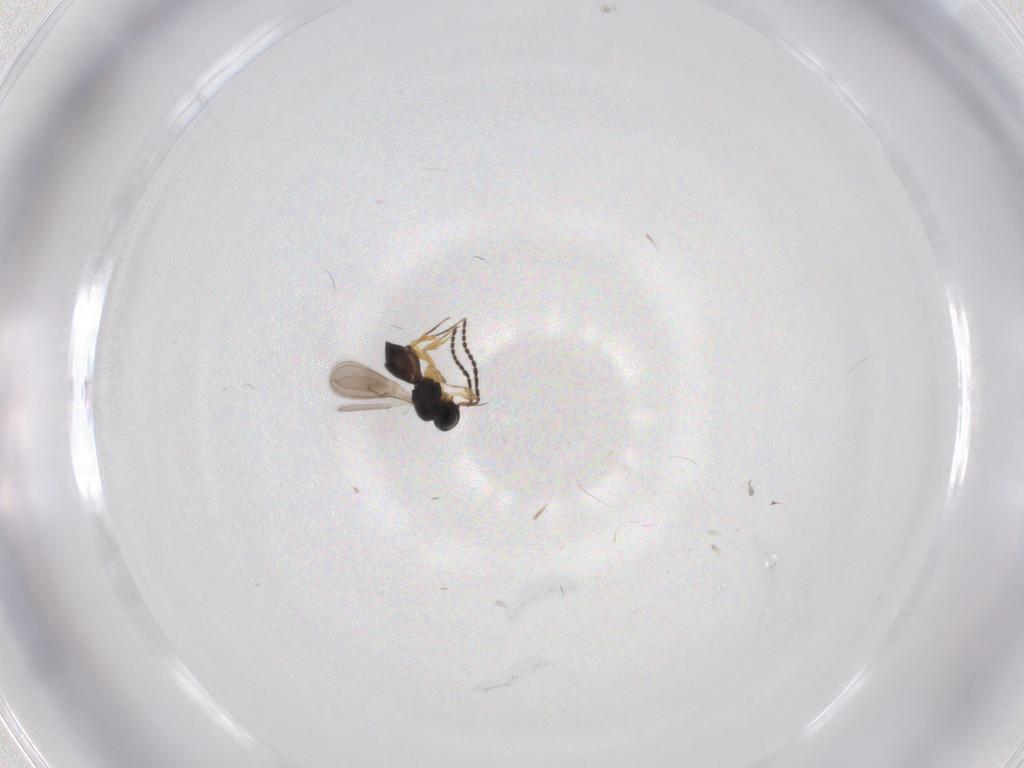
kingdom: Animalia
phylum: Arthropoda
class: Insecta
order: Hymenoptera
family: Scelionidae
